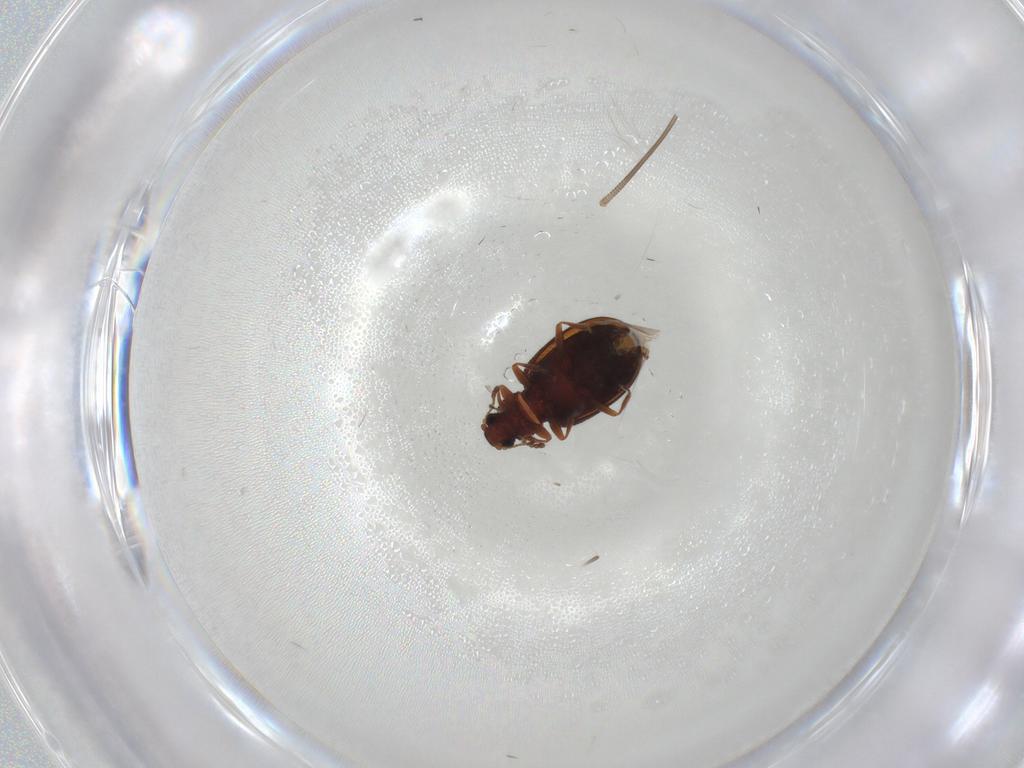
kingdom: Animalia
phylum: Arthropoda
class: Insecta
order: Coleoptera
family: Latridiidae
